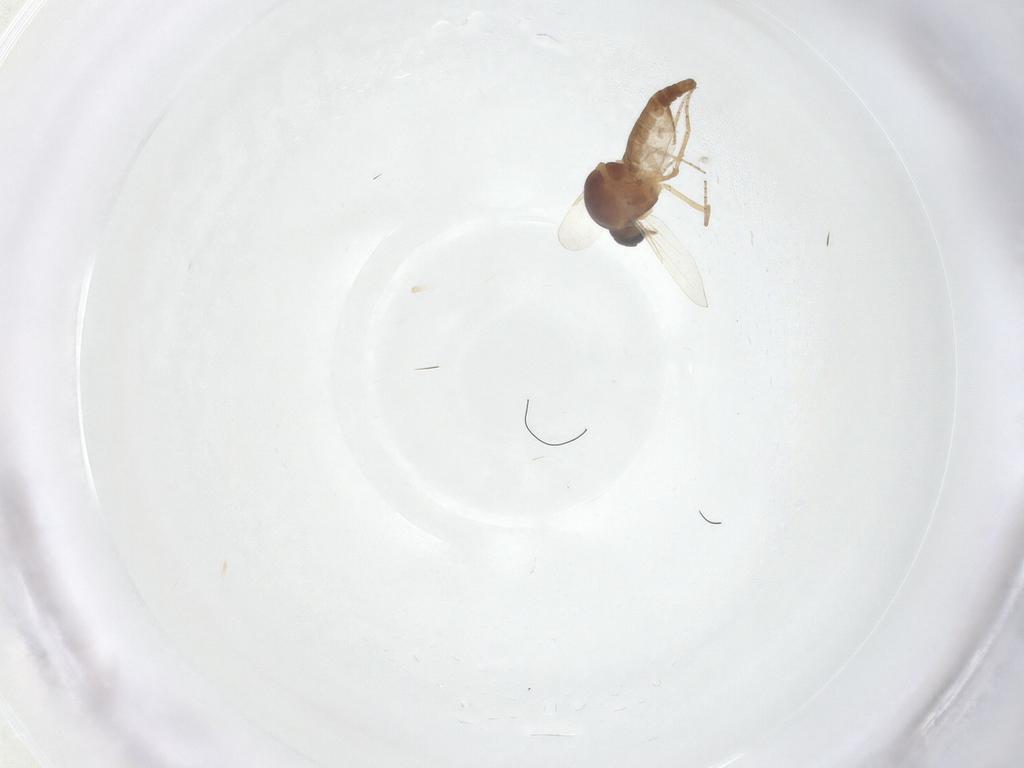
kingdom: Animalia
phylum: Arthropoda
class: Insecta
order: Diptera
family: Ceratopogonidae
